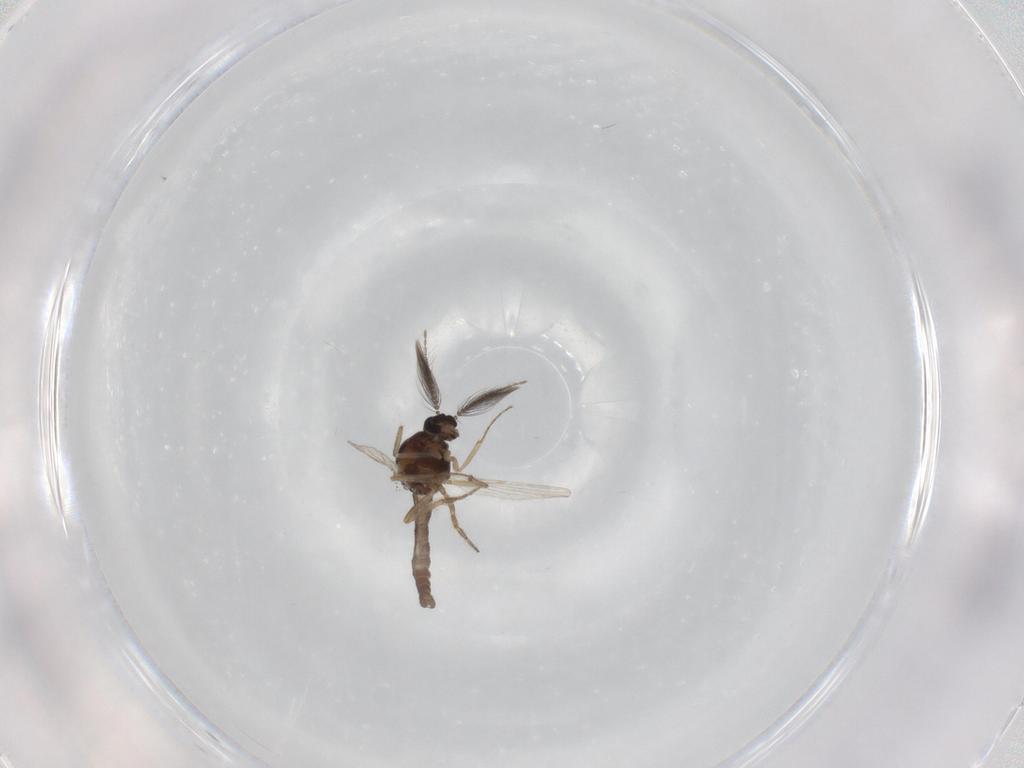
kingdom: Animalia
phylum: Arthropoda
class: Insecta
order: Diptera
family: Ceratopogonidae
